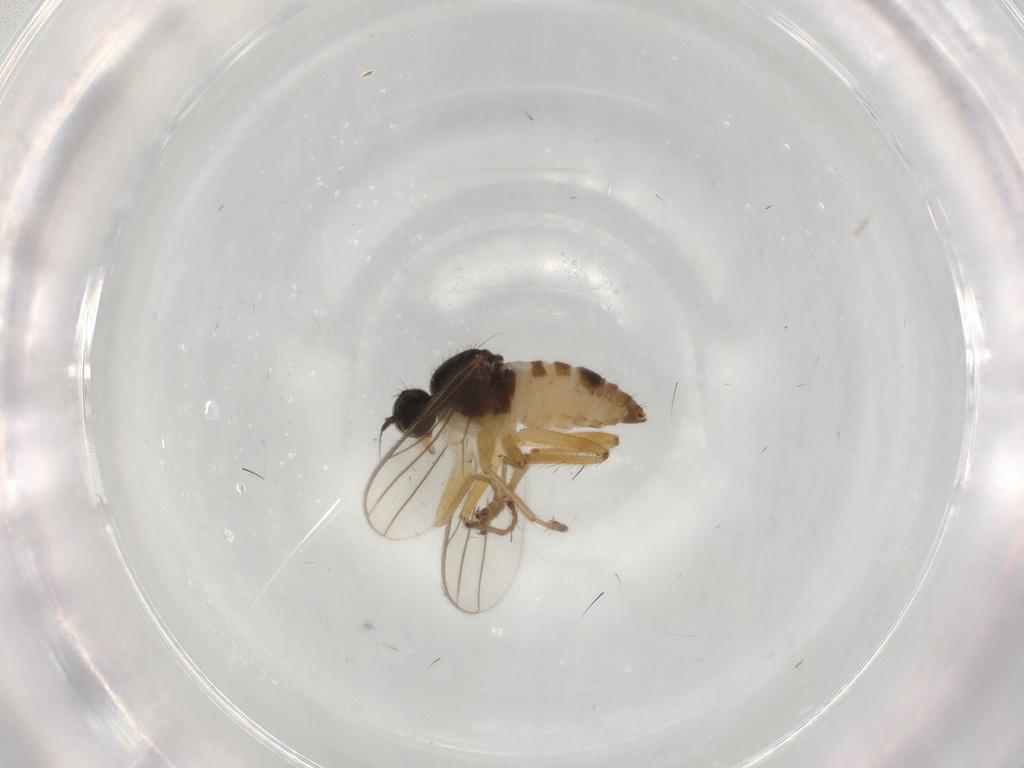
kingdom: Animalia
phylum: Arthropoda
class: Insecta
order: Diptera
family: Hybotidae
